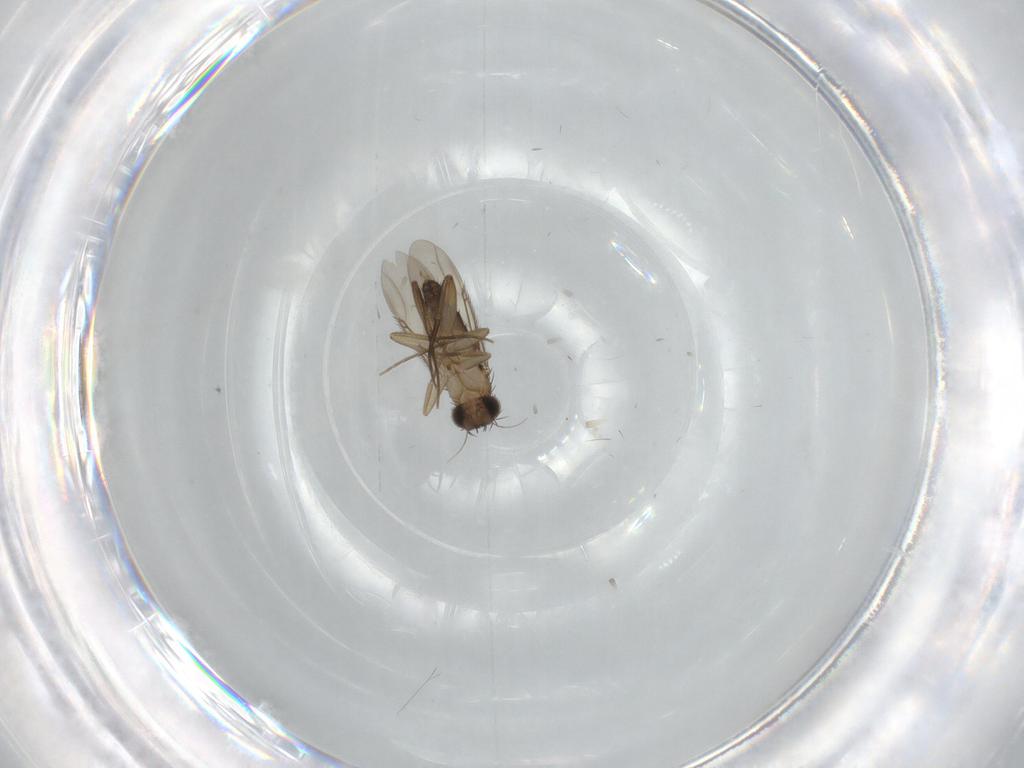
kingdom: Animalia
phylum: Arthropoda
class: Insecta
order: Diptera
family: Phoridae
